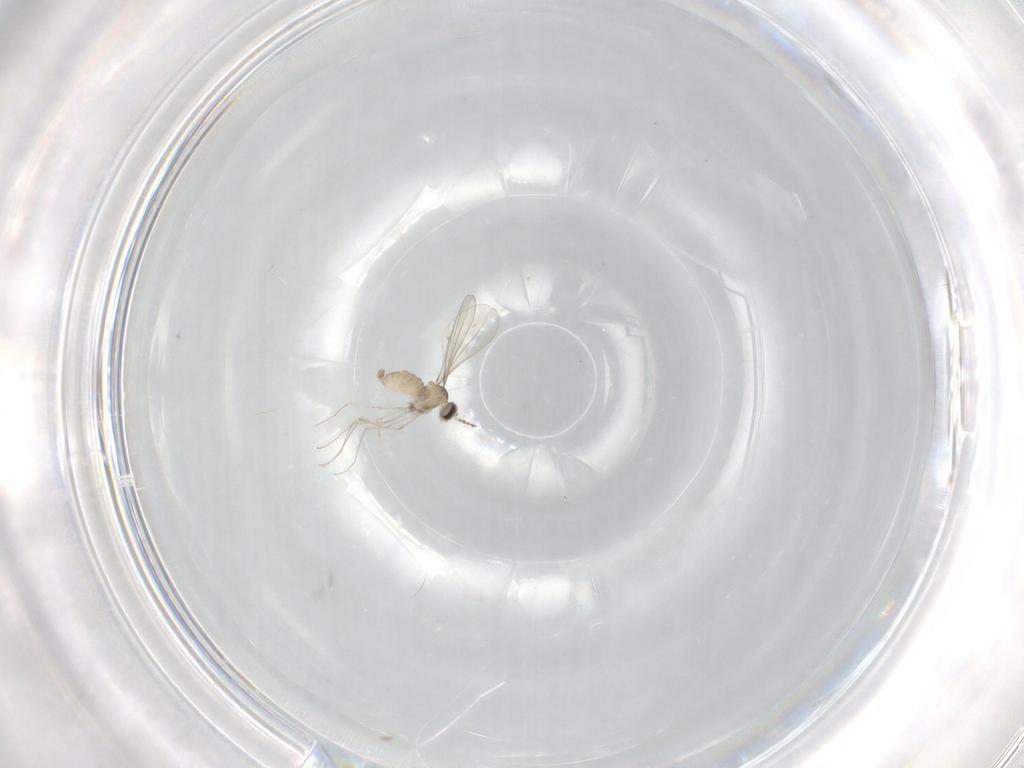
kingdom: Animalia
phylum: Arthropoda
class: Insecta
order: Diptera
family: Cecidomyiidae
